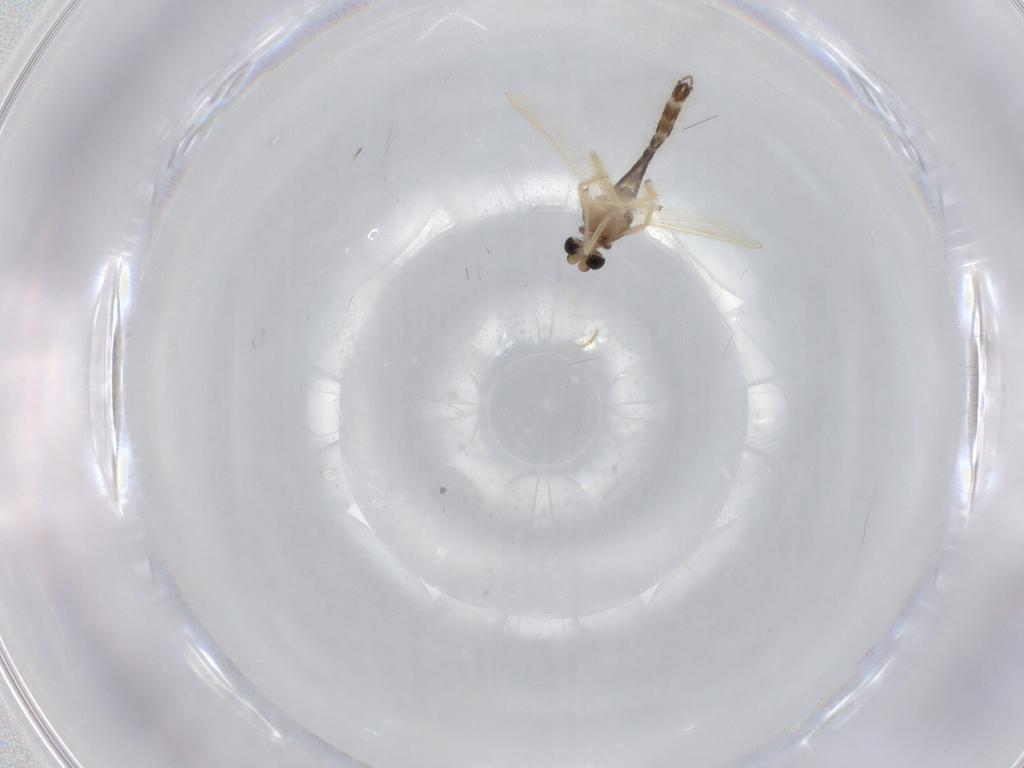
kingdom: Animalia
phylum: Arthropoda
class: Insecta
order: Diptera
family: Chironomidae
